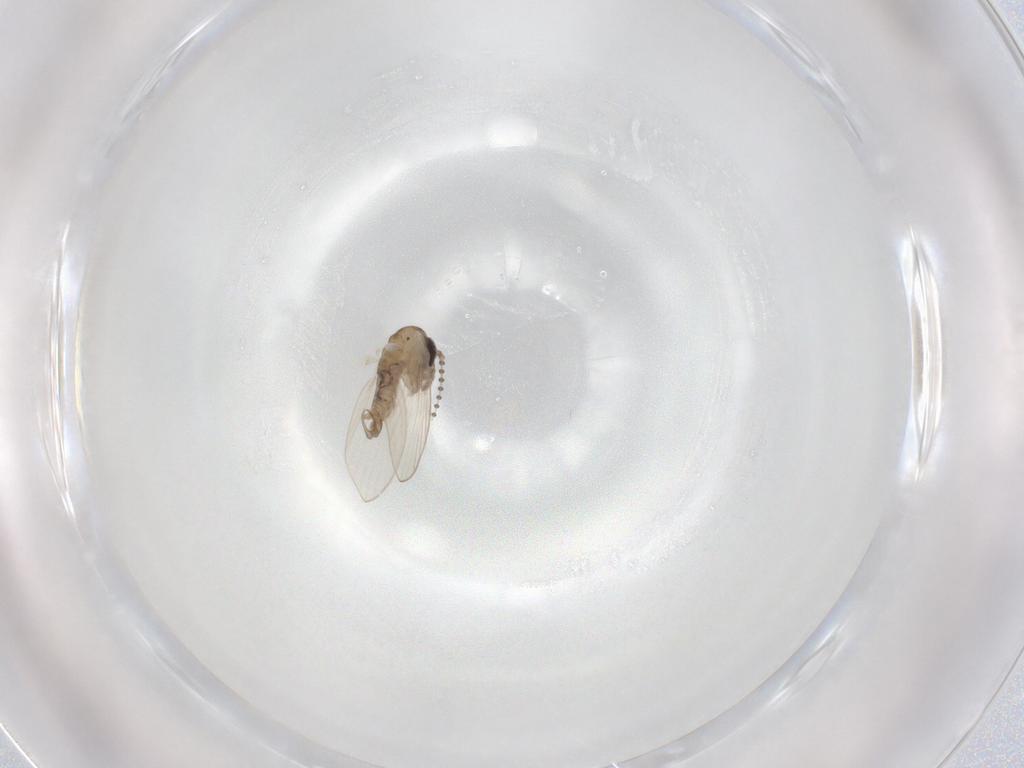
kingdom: Animalia
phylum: Arthropoda
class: Insecta
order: Diptera
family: Psychodidae
